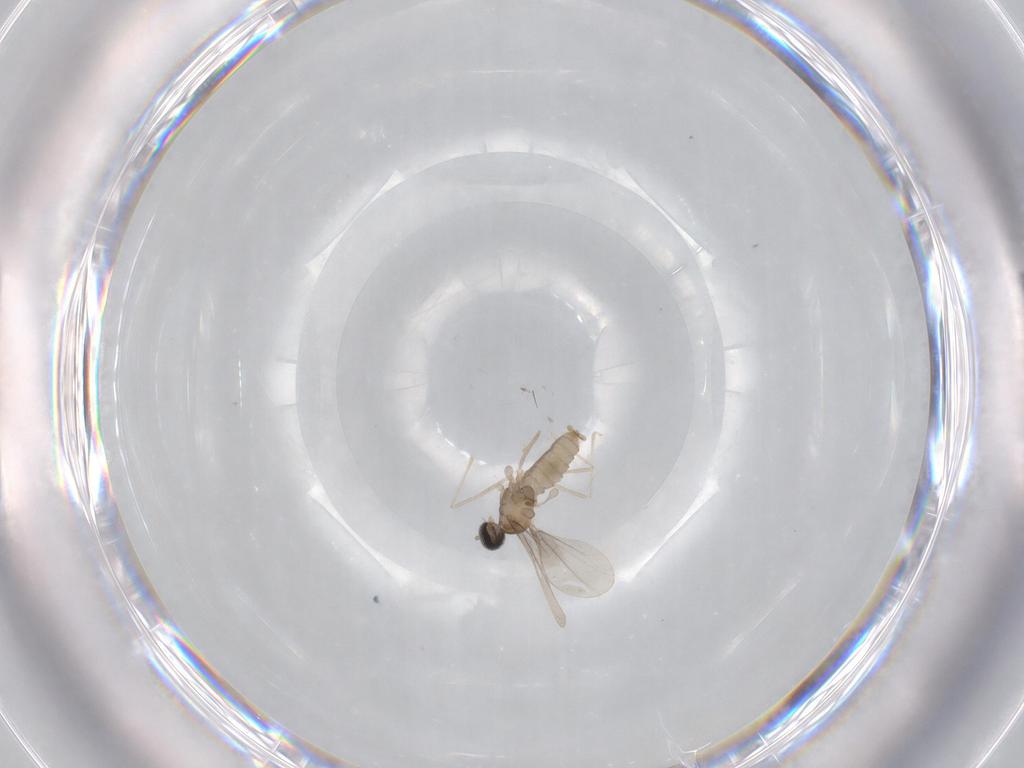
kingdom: Animalia
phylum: Arthropoda
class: Insecta
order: Diptera
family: Cecidomyiidae
